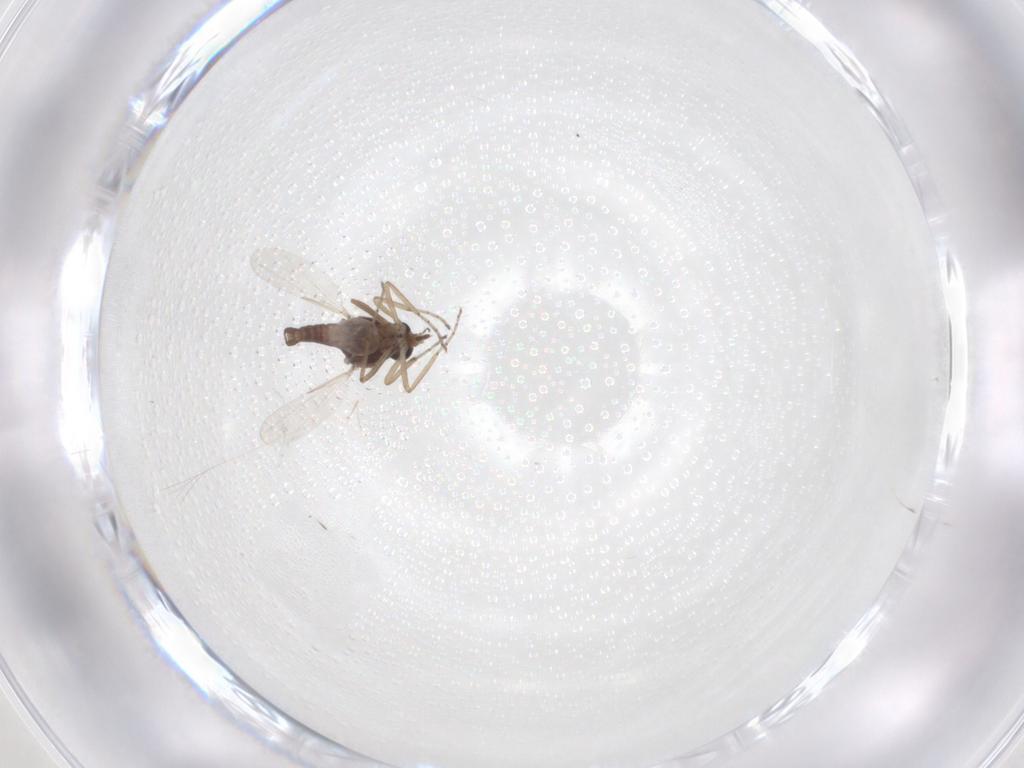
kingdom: Animalia
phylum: Arthropoda
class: Insecta
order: Diptera
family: Ceratopogonidae
